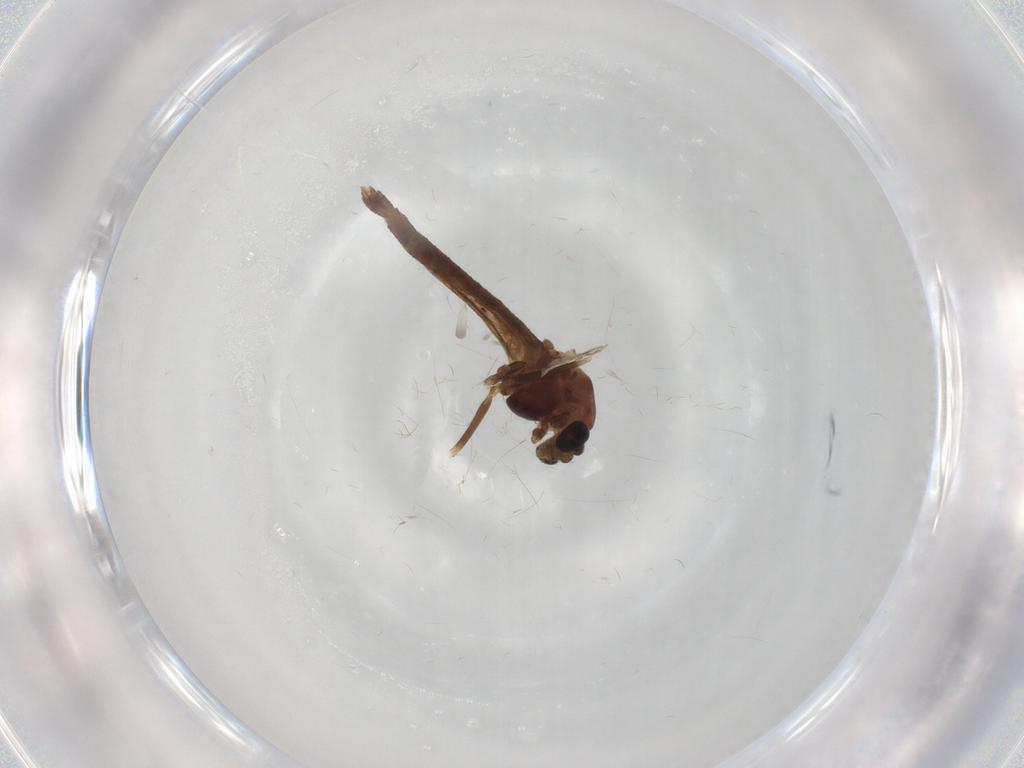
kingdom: Animalia
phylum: Arthropoda
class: Insecta
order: Diptera
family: Chironomidae
